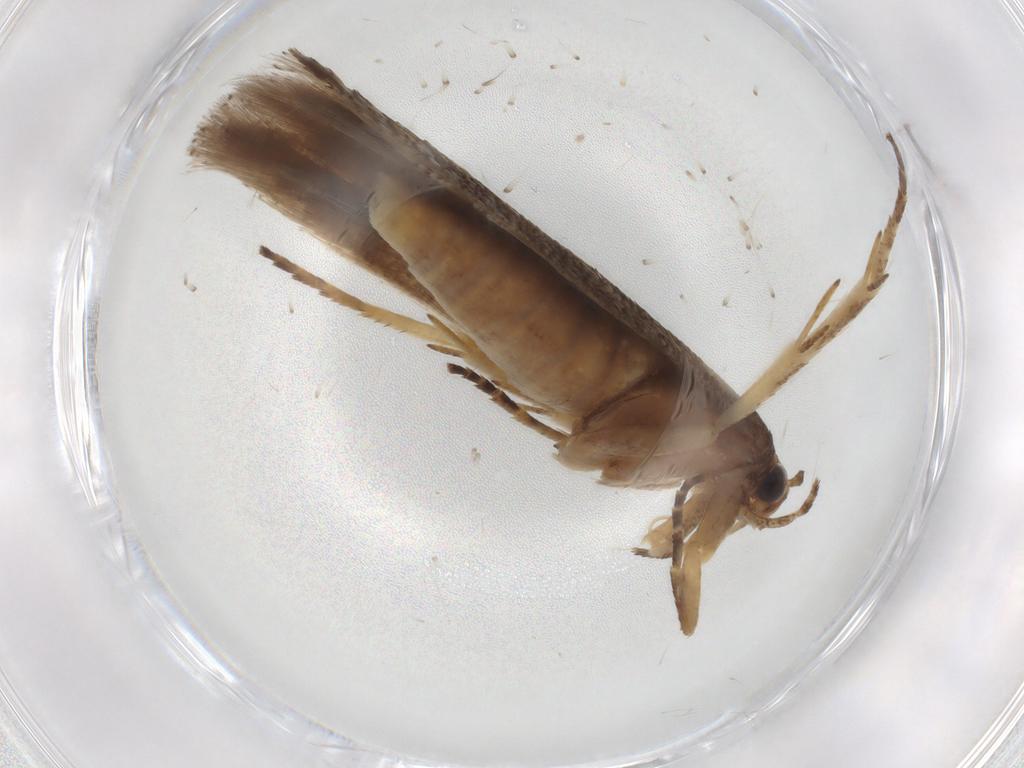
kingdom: Animalia
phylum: Arthropoda
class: Insecta
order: Lepidoptera
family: Gelechiidae
